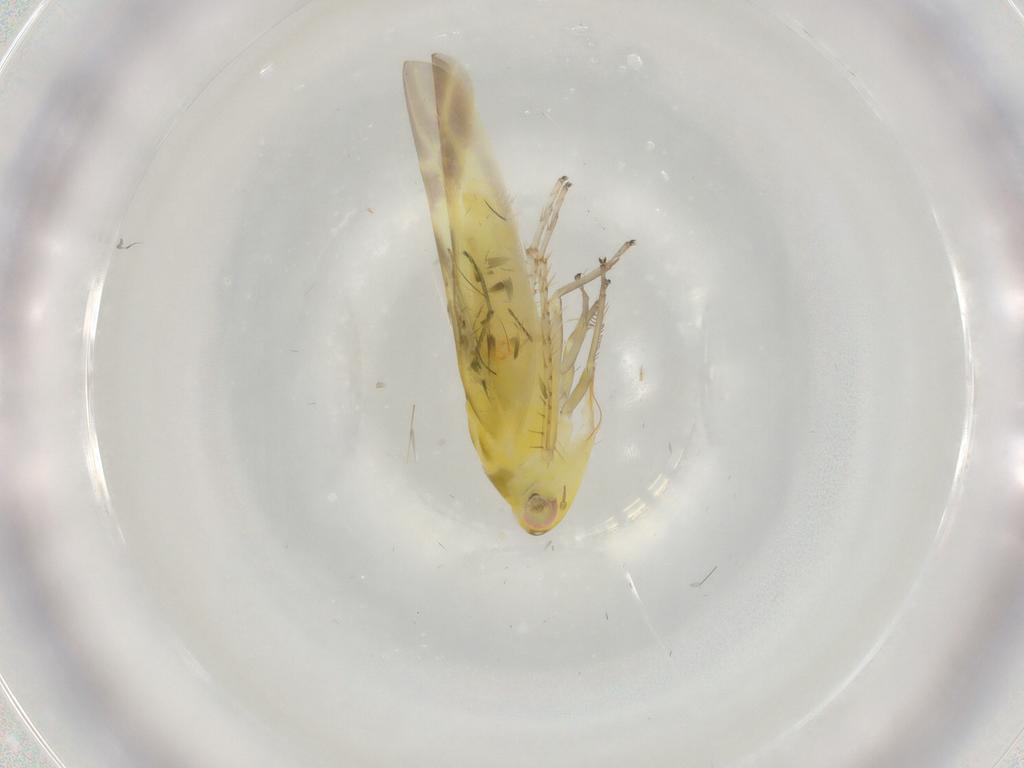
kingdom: Animalia
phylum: Arthropoda
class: Insecta
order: Hemiptera
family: Cicadellidae
